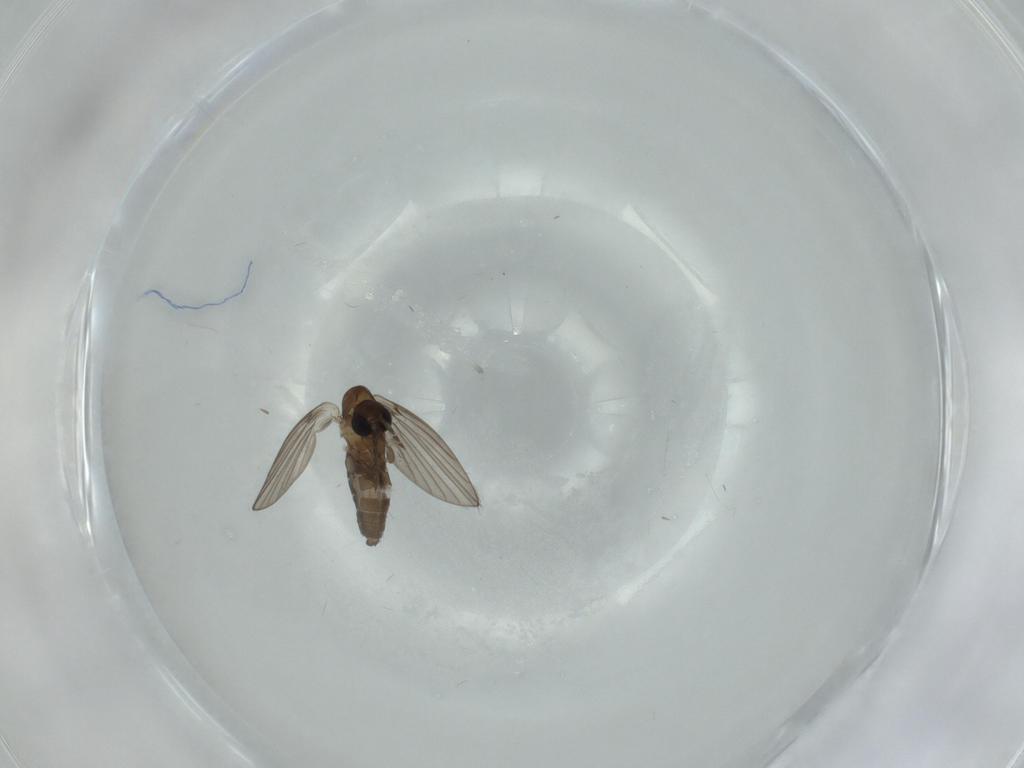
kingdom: Animalia
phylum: Arthropoda
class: Insecta
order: Diptera
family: Psychodidae
